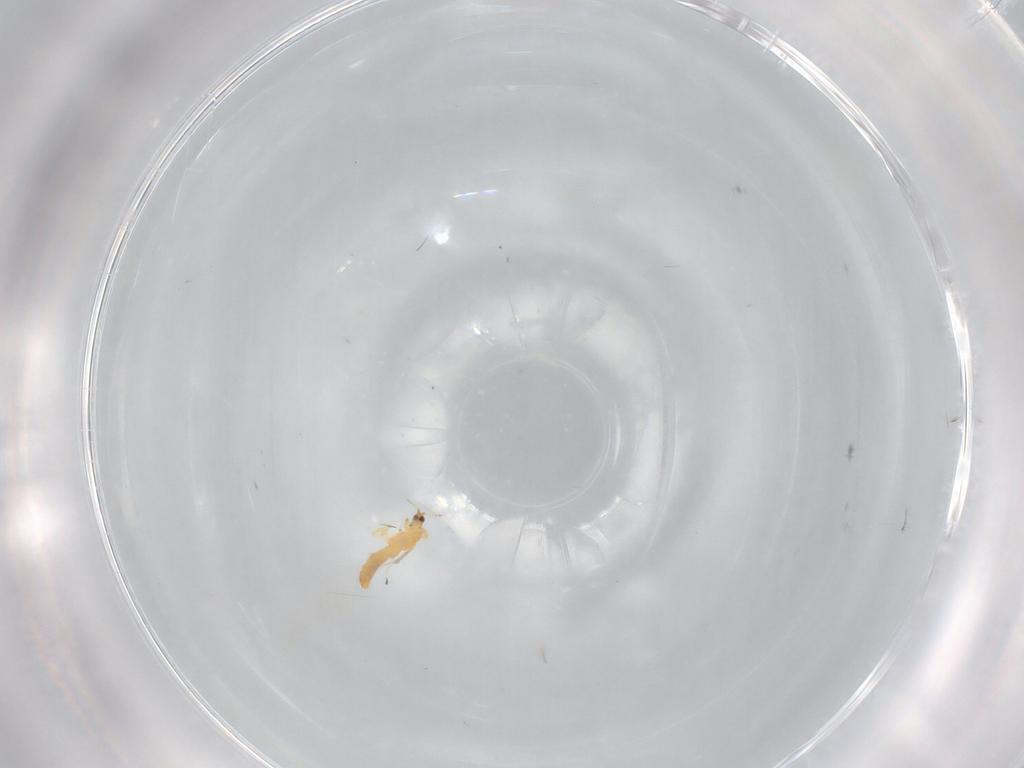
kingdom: Animalia
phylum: Arthropoda
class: Insecta
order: Thysanoptera
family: Thripidae
